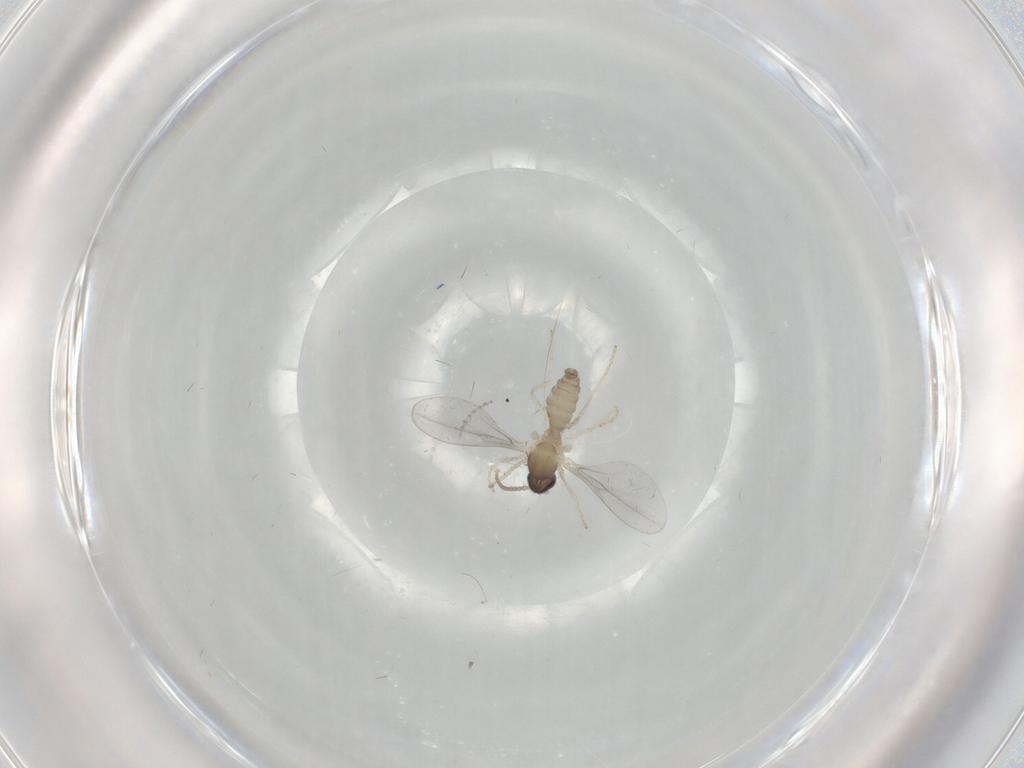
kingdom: Animalia
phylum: Arthropoda
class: Insecta
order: Diptera
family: Cecidomyiidae
